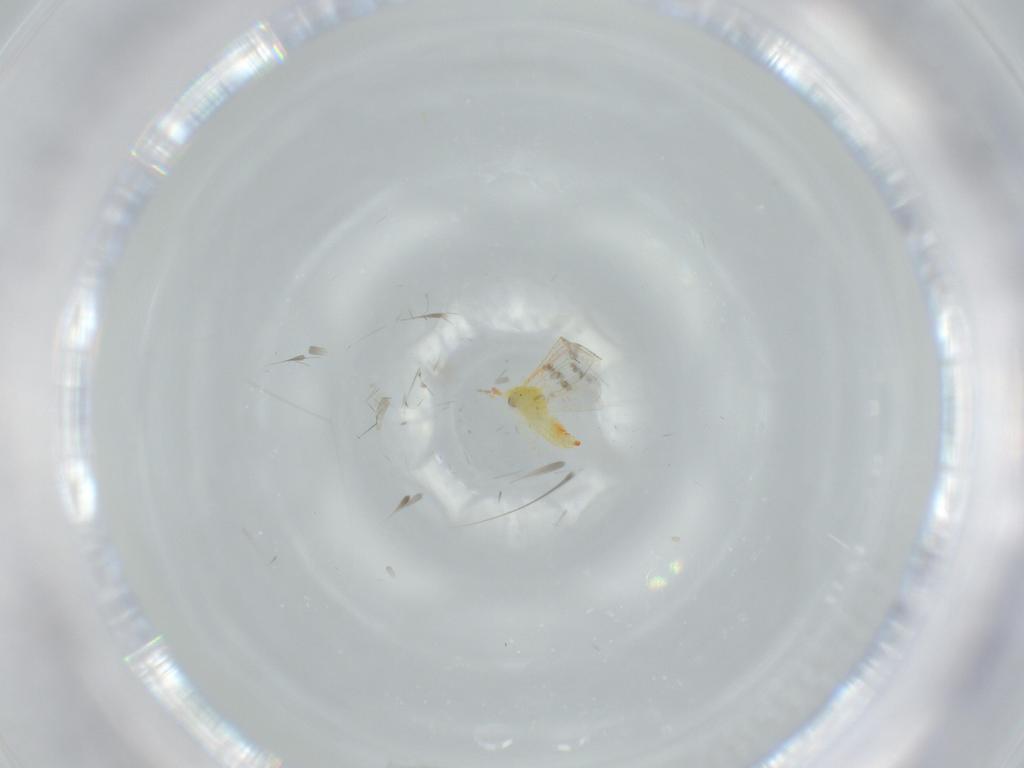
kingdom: Animalia
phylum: Arthropoda
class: Insecta
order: Hemiptera
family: Aleyrodidae
